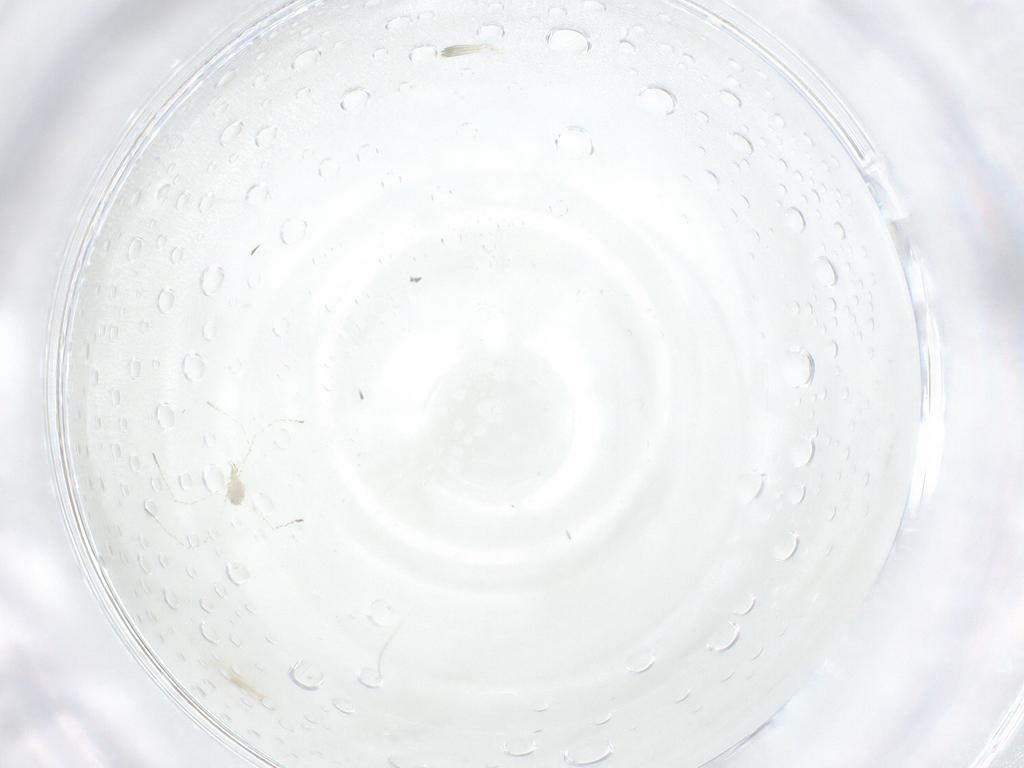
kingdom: Animalia
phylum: Arthropoda
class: Arachnida
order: Trombidiformes
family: Smarididae
